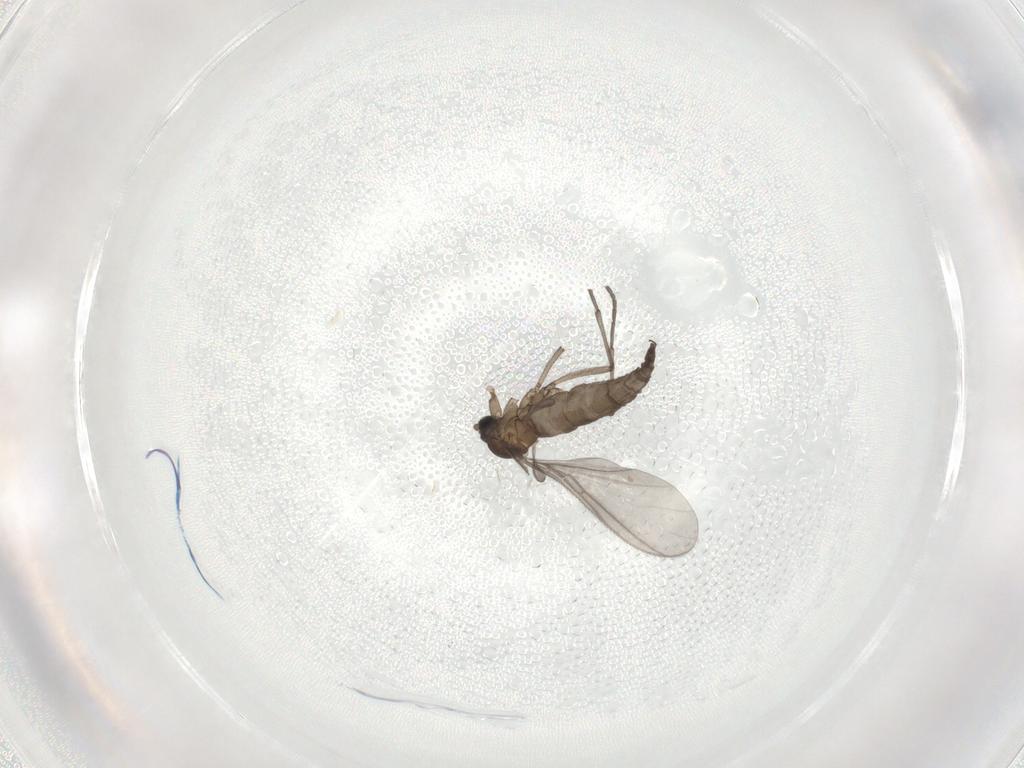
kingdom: Animalia
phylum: Arthropoda
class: Insecta
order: Diptera
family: Sciaridae
